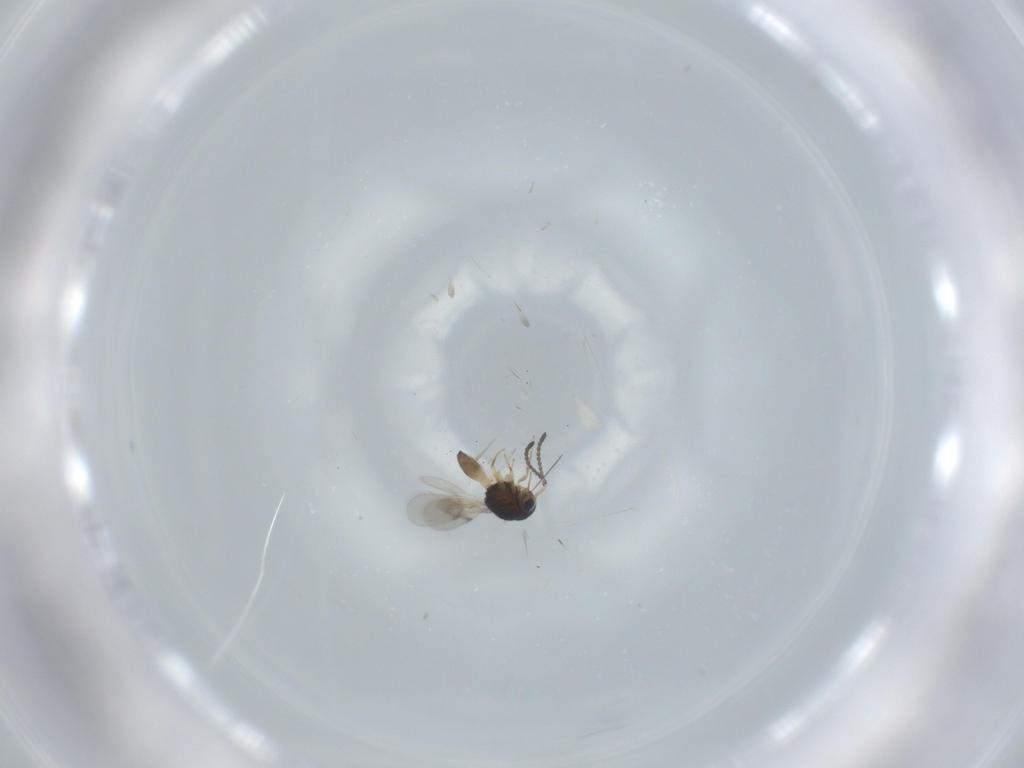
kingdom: Animalia
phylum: Arthropoda
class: Insecta
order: Hymenoptera
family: Scelionidae
